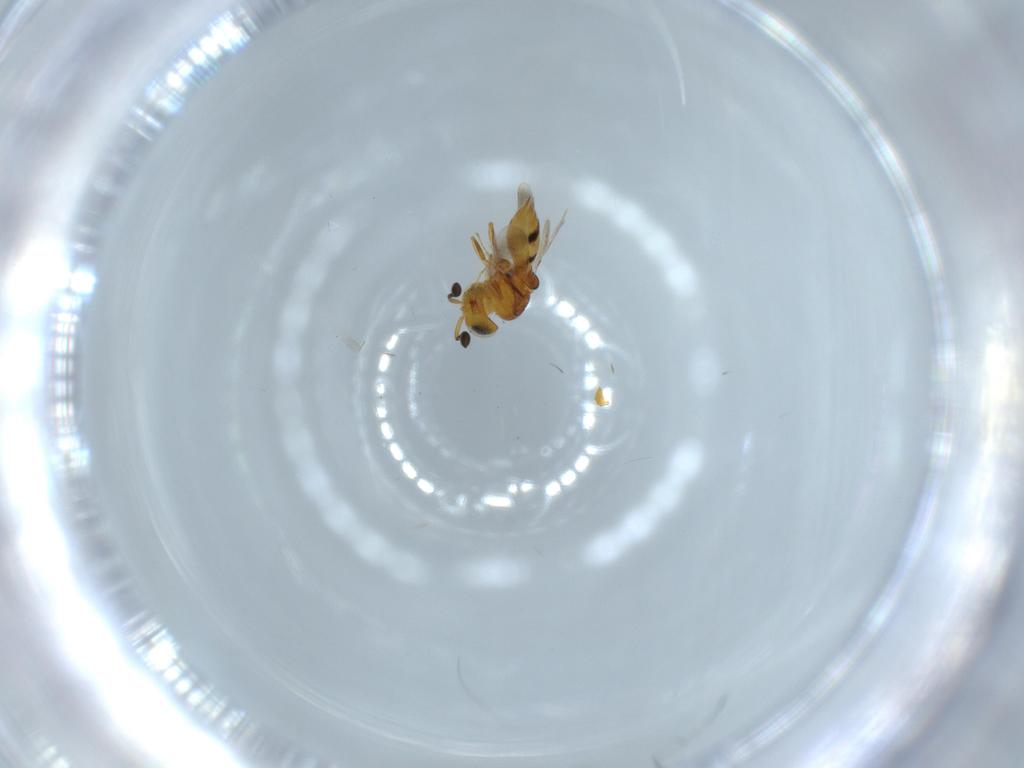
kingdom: Animalia
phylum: Arthropoda
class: Insecta
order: Hymenoptera
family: Scelionidae
